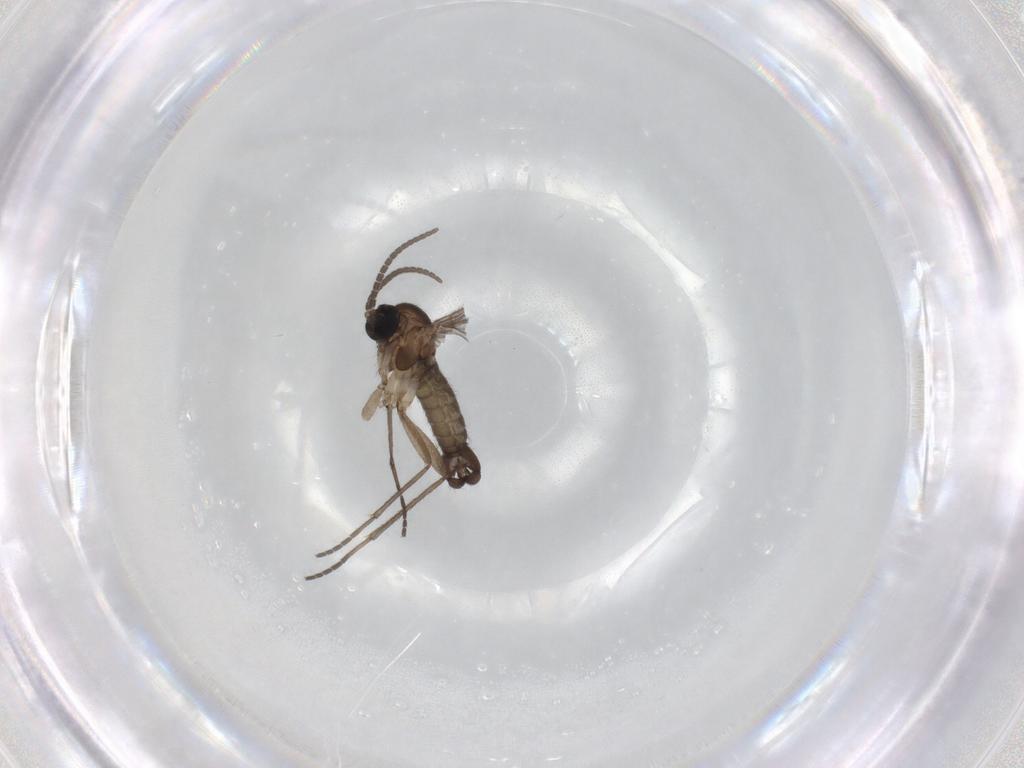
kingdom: Animalia
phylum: Arthropoda
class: Insecta
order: Diptera
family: Sciaridae
